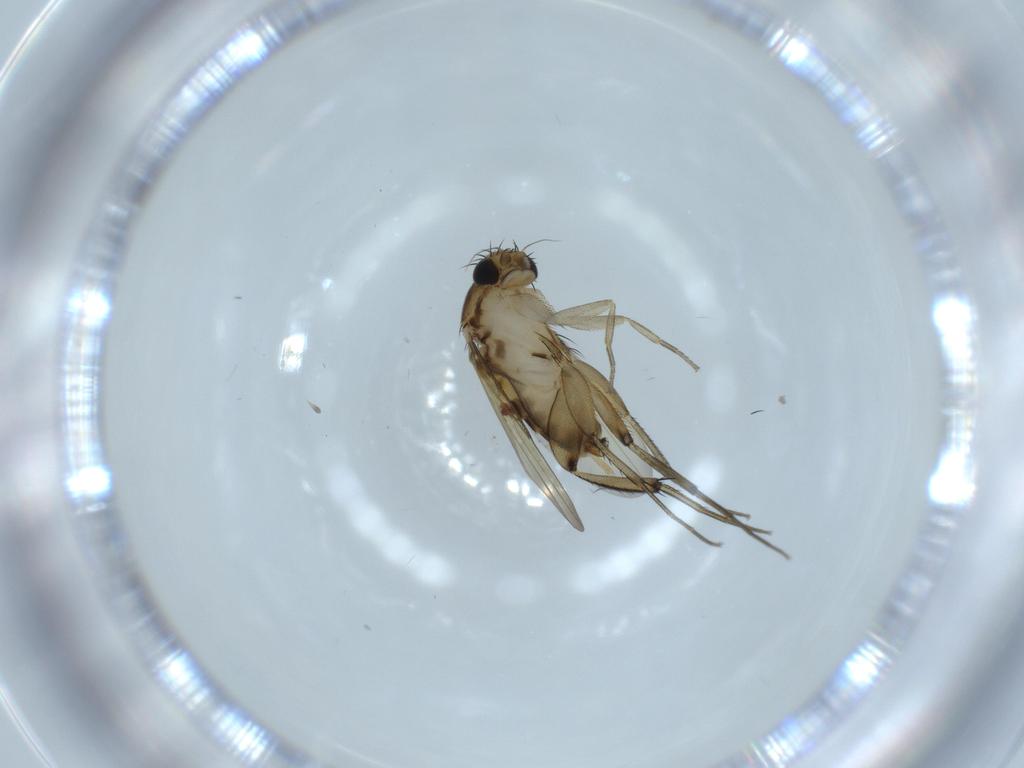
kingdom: Animalia
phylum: Arthropoda
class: Insecta
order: Diptera
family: Phoridae
